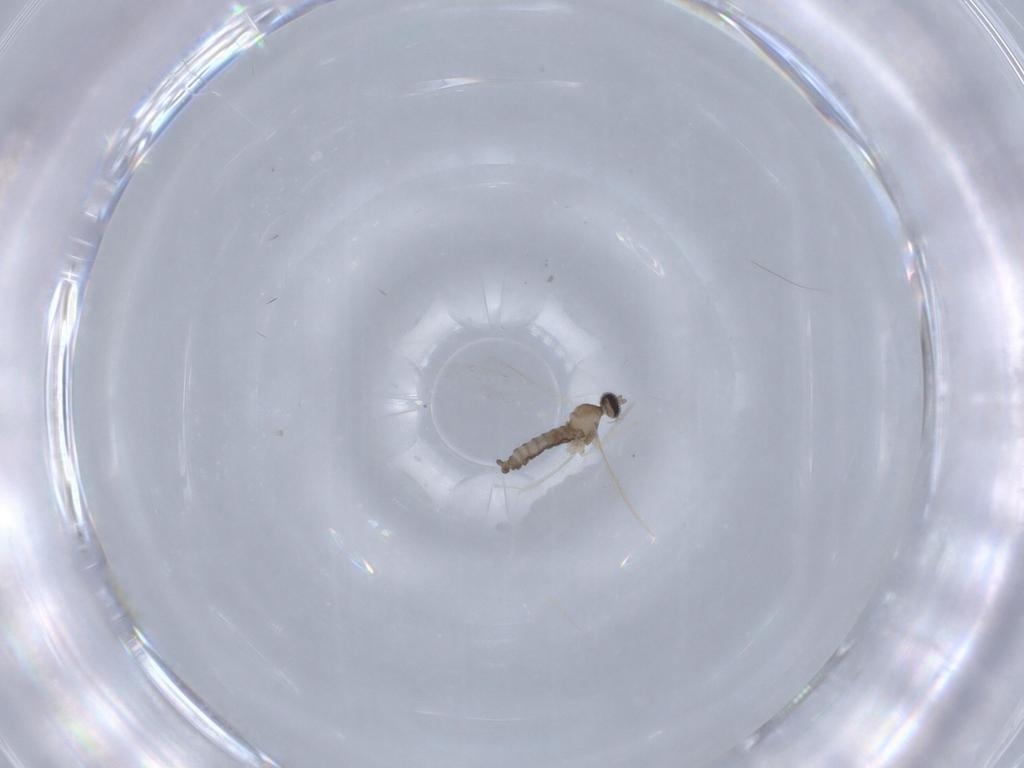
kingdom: Animalia
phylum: Arthropoda
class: Insecta
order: Diptera
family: Cecidomyiidae
